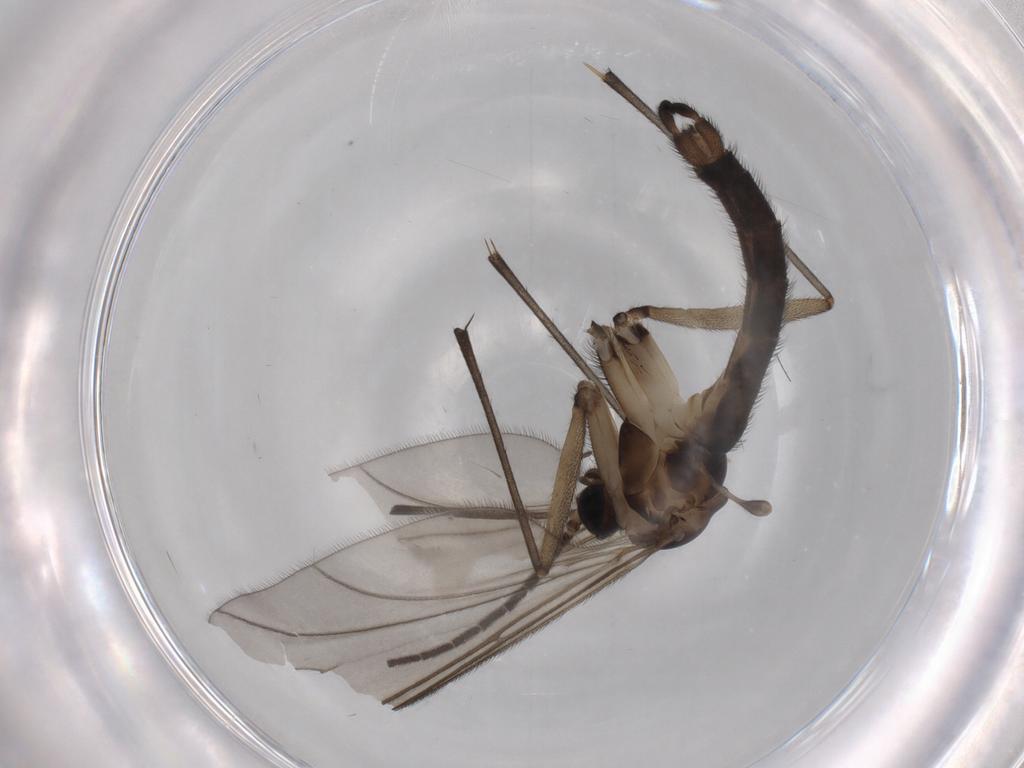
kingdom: Animalia
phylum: Arthropoda
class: Insecta
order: Diptera
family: Sciaridae
